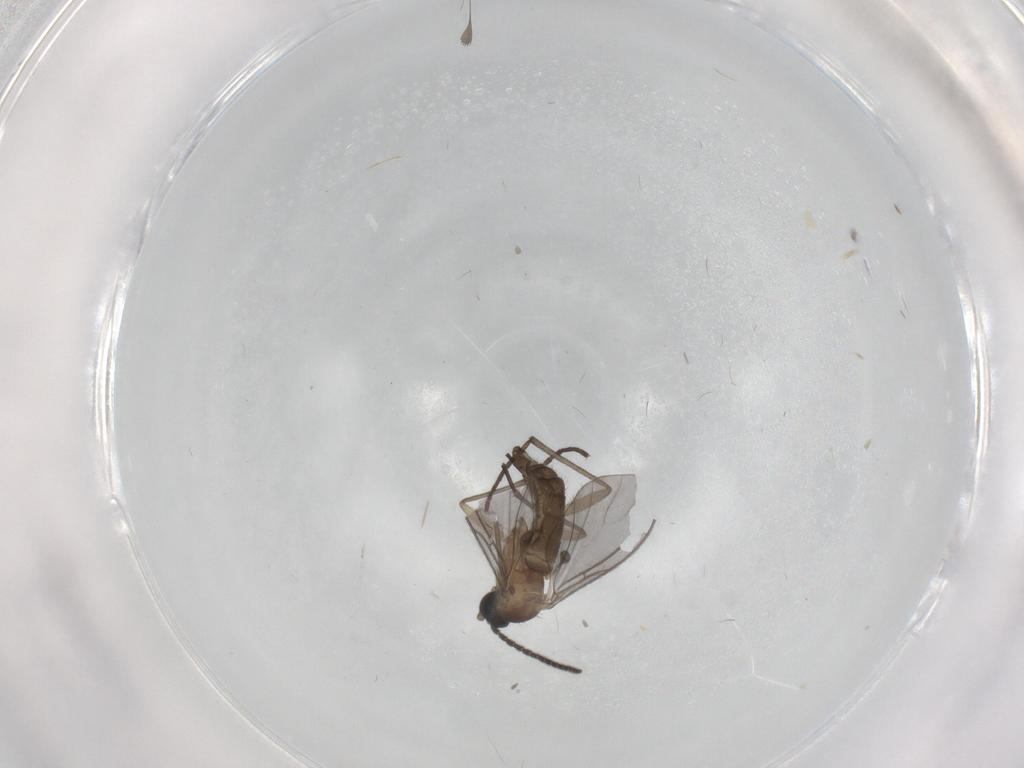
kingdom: Animalia
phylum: Arthropoda
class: Insecta
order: Diptera
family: Sciaridae
